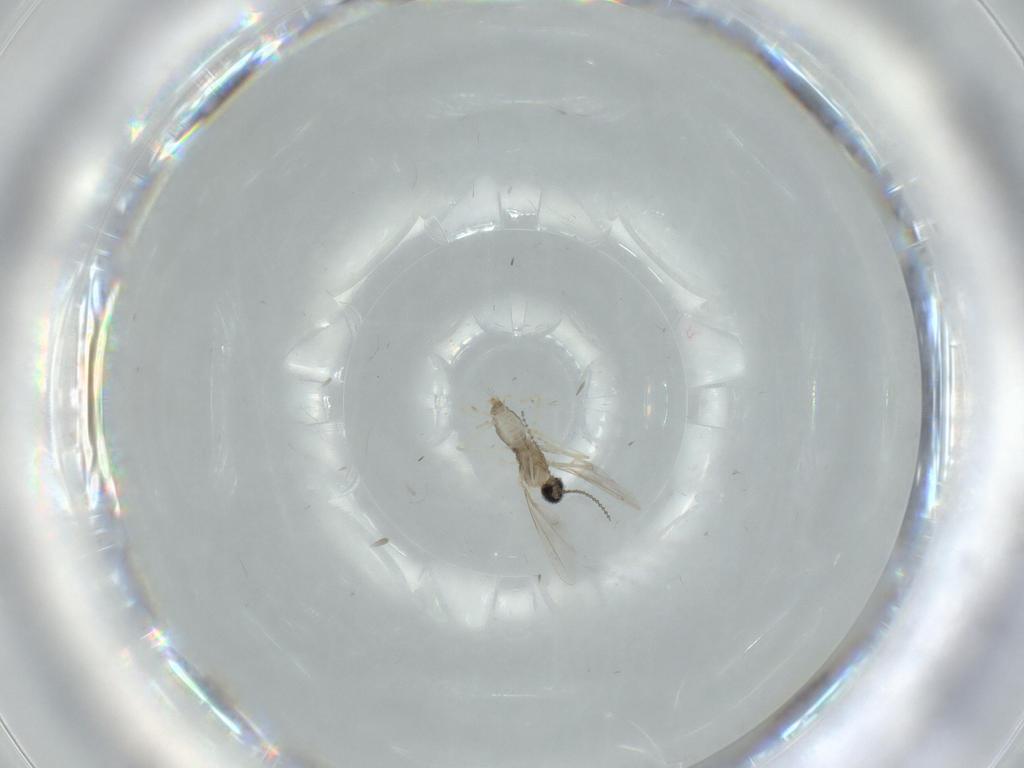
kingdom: Animalia
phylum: Arthropoda
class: Insecta
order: Diptera
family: Cecidomyiidae
